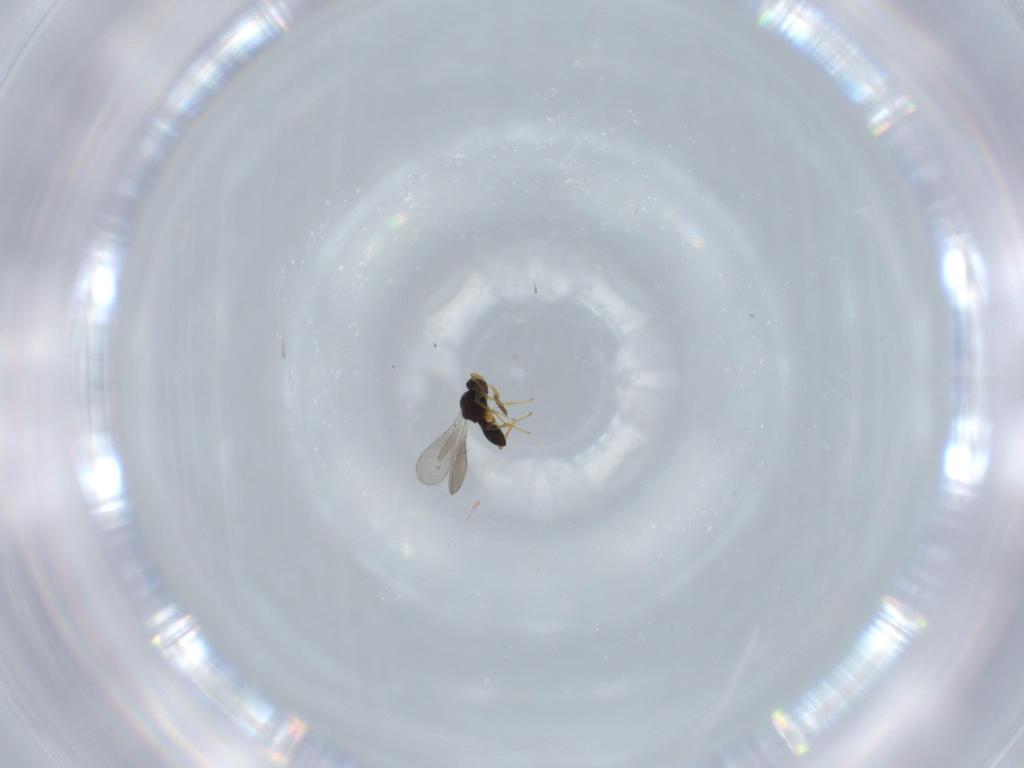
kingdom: Animalia
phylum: Arthropoda
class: Insecta
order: Hymenoptera
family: Platygastridae
